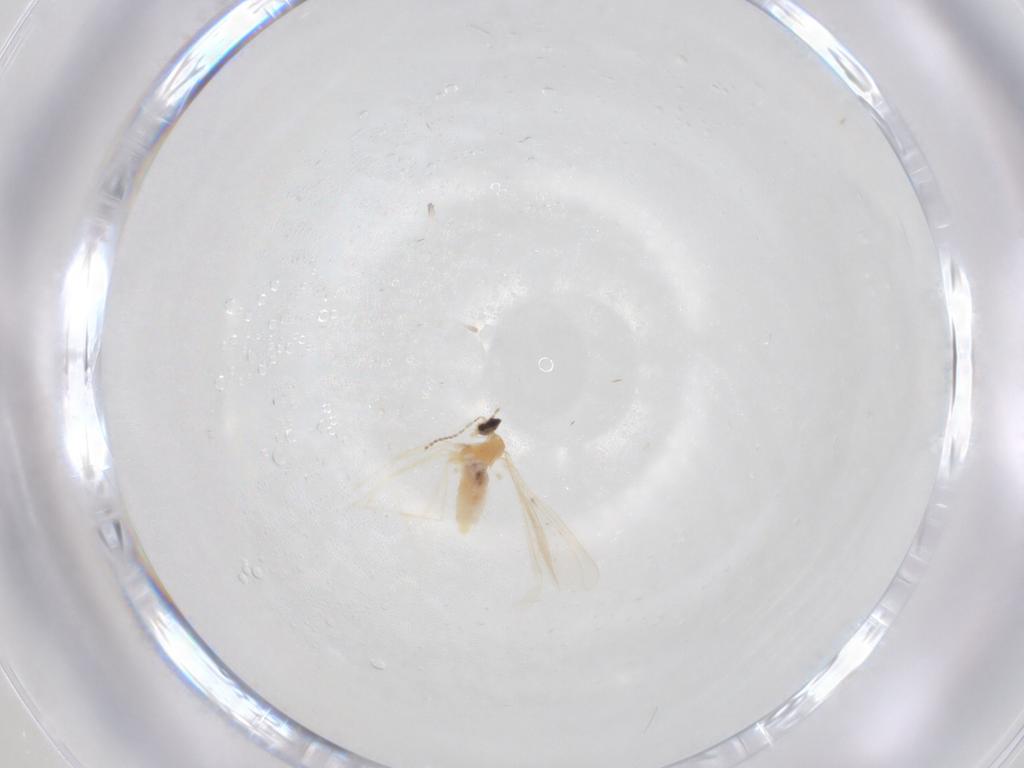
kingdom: Animalia
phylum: Arthropoda
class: Insecta
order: Diptera
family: Cecidomyiidae
